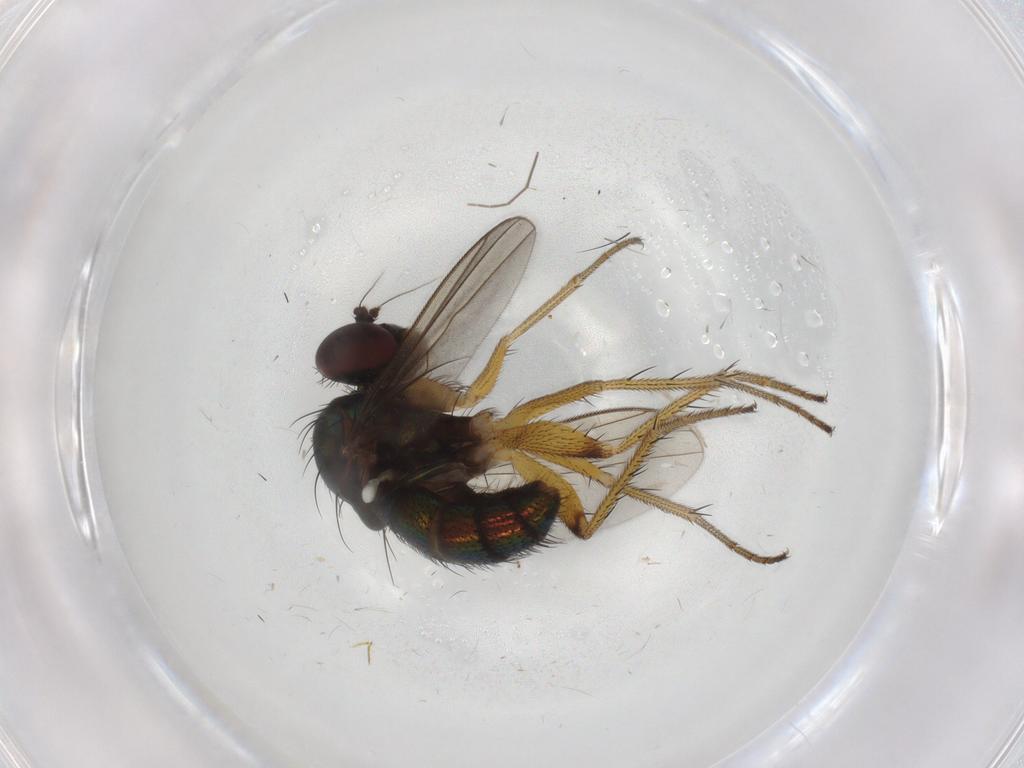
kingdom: Animalia
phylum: Arthropoda
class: Insecta
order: Diptera
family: Dolichopodidae
